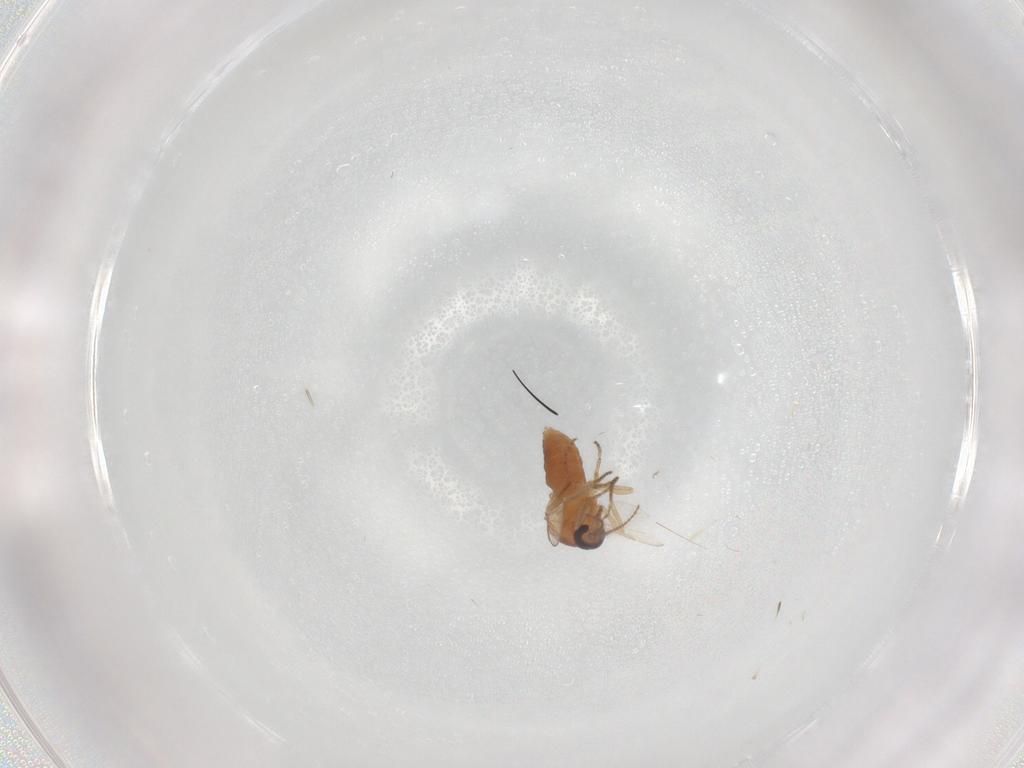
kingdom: Animalia
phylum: Arthropoda
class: Insecta
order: Diptera
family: Ceratopogonidae
